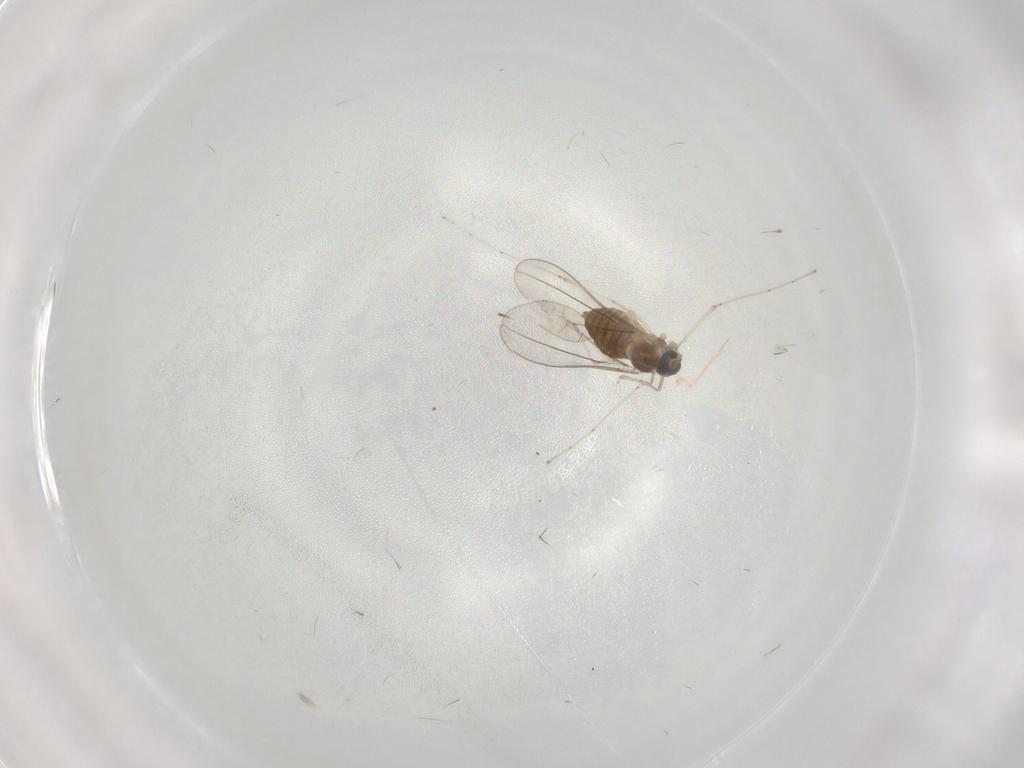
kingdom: Animalia
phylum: Arthropoda
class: Insecta
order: Diptera
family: Cecidomyiidae
